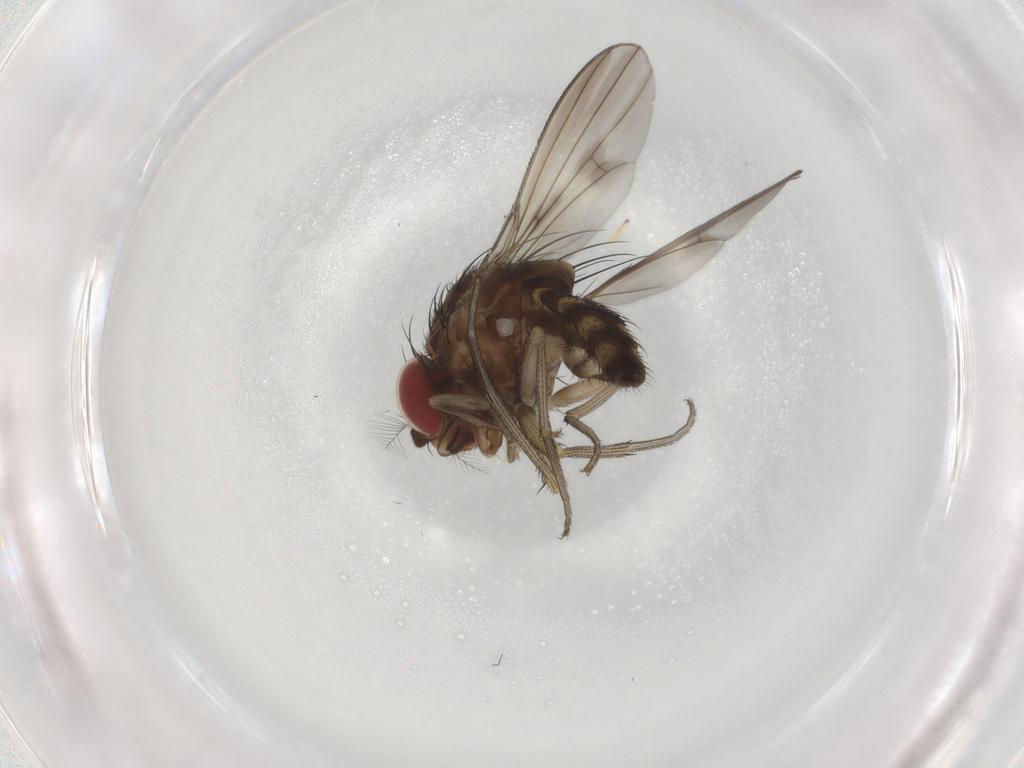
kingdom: Animalia
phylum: Arthropoda
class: Insecta
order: Diptera
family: Curtonotidae
